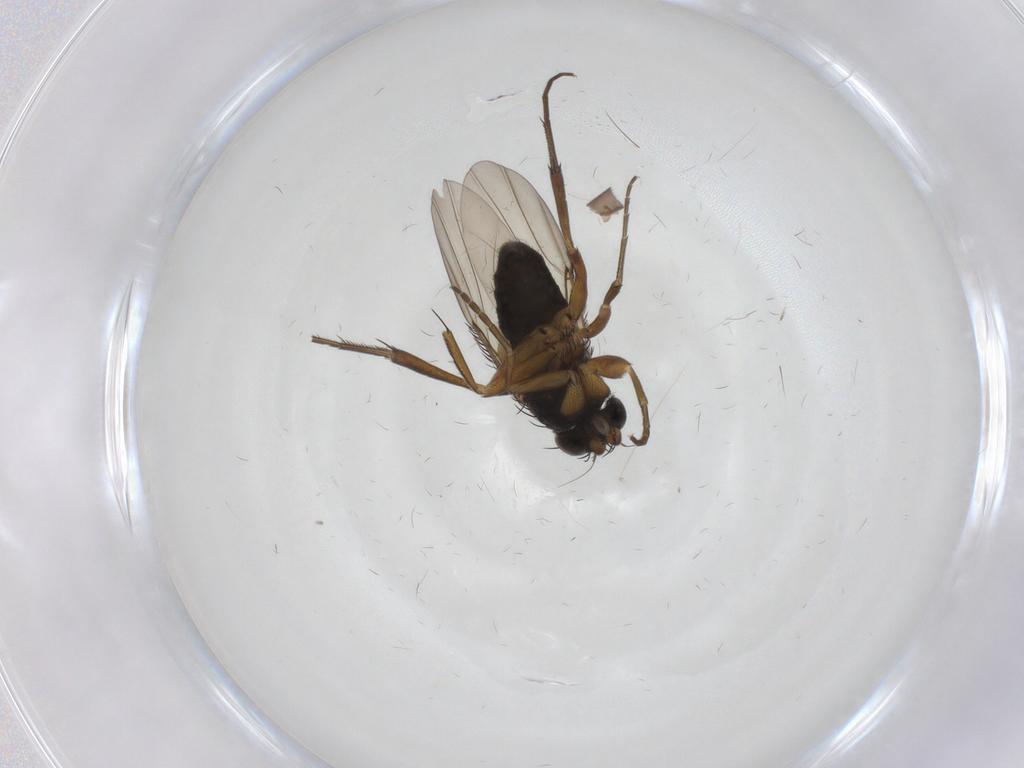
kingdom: Animalia
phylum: Arthropoda
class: Insecta
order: Diptera
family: Phoridae
